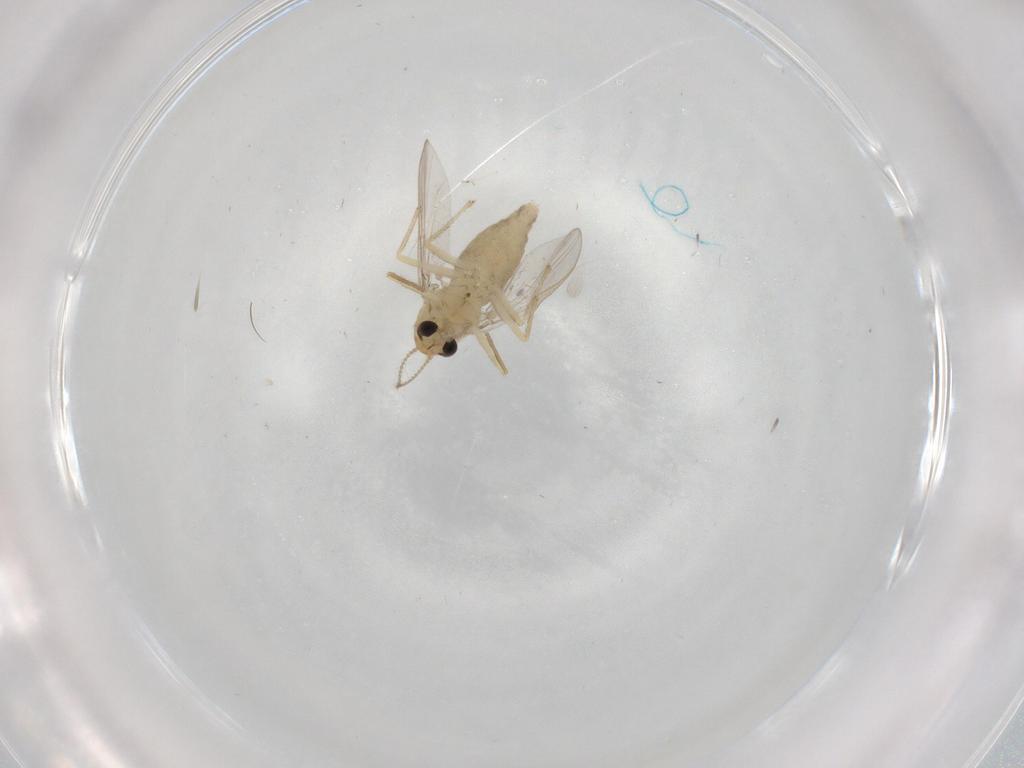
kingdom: Animalia
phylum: Arthropoda
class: Insecta
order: Diptera
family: Chironomidae
